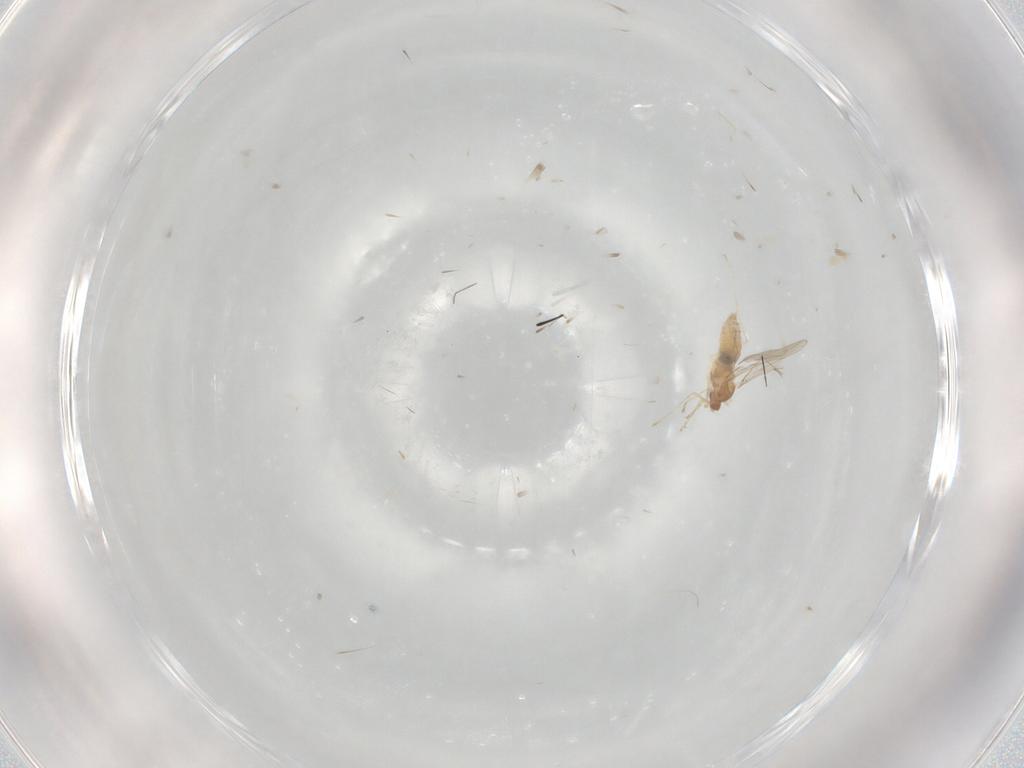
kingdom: Animalia
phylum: Arthropoda
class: Insecta
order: Diptera
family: Cecidomyiidae
